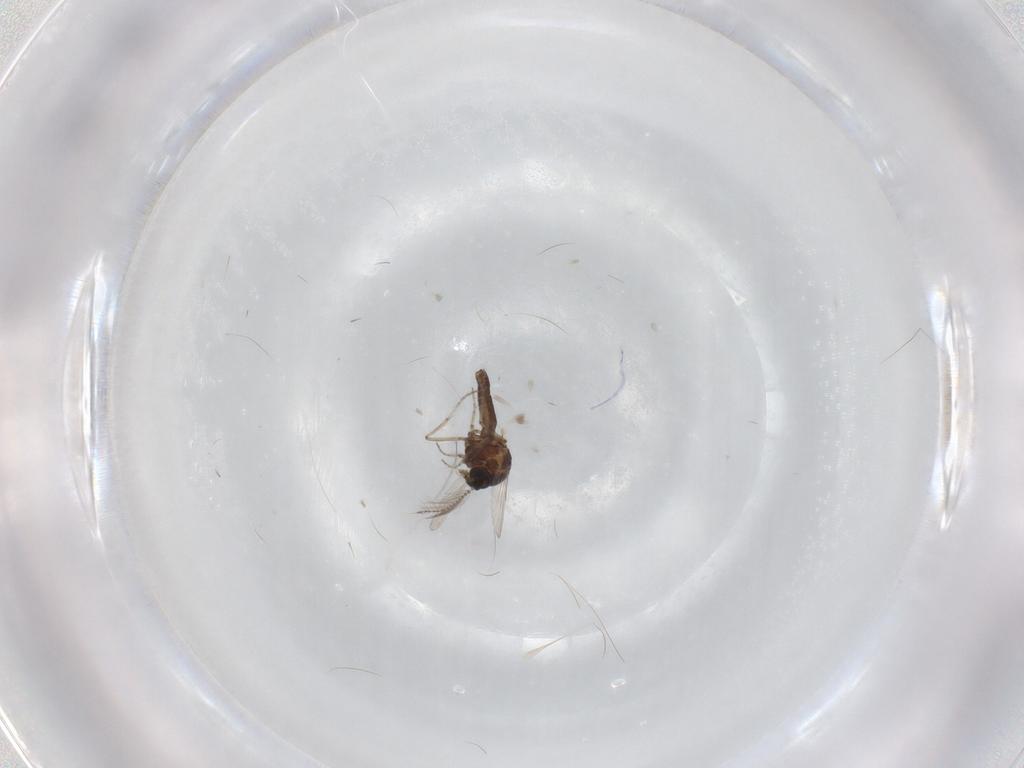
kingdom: Animalia
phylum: Arthropoda
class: Insecta
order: Diptera
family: Ceratopogonidae
